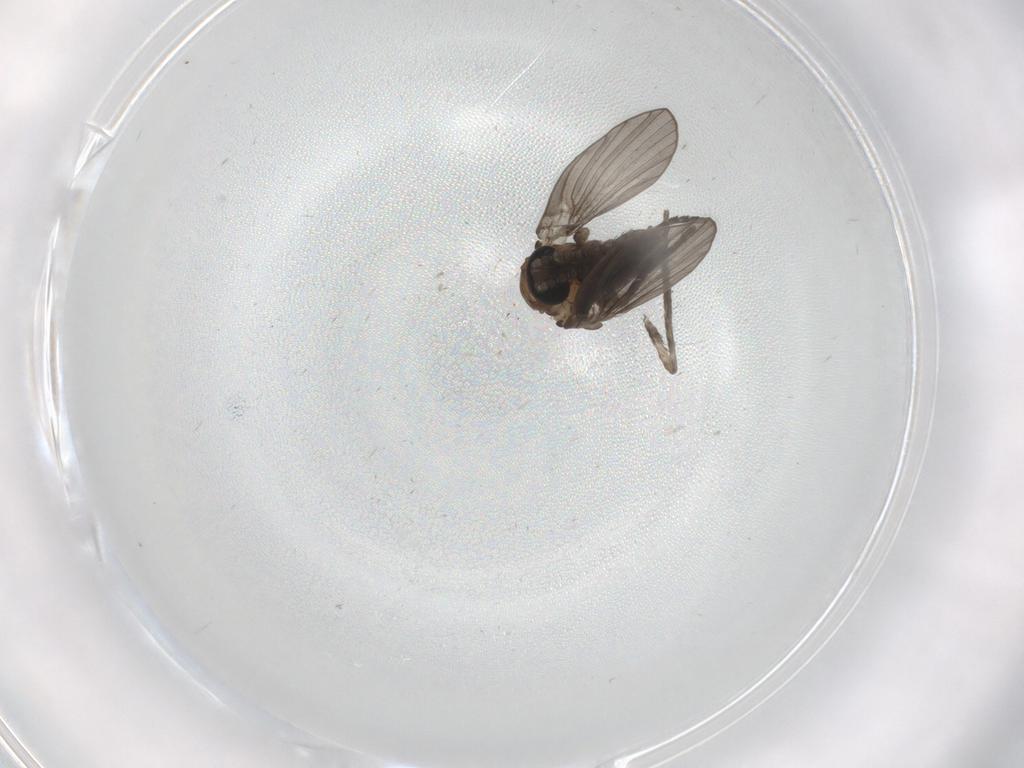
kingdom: Animalia
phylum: Arthropoda
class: Insecta
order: Diptera
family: Psychodidae
